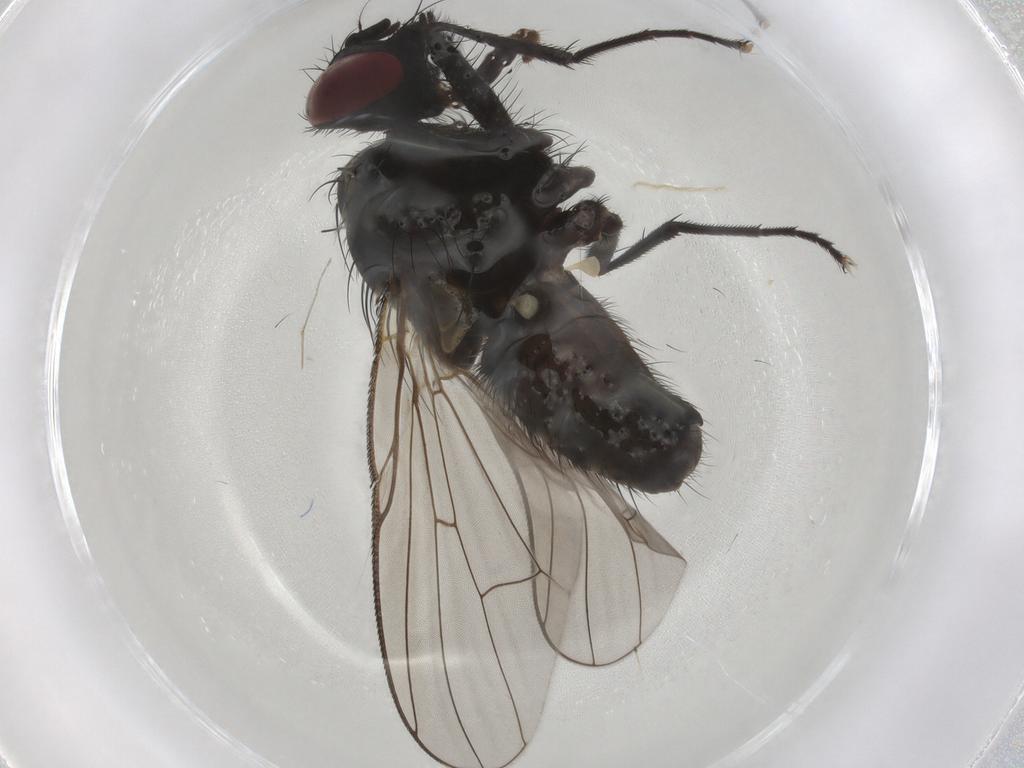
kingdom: Animalia
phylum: Arthropoda
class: Insecta
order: Diptera
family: Muscidae
